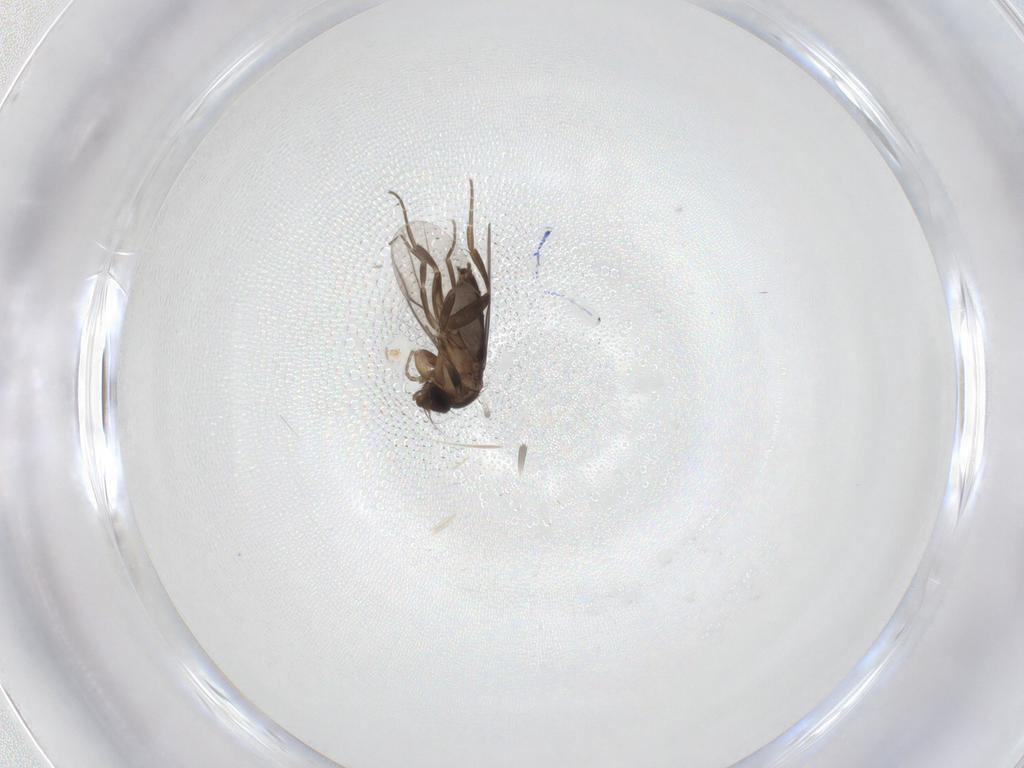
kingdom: Animalia
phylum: Arthropoda
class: Insecta
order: Diptera
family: Phoridae
